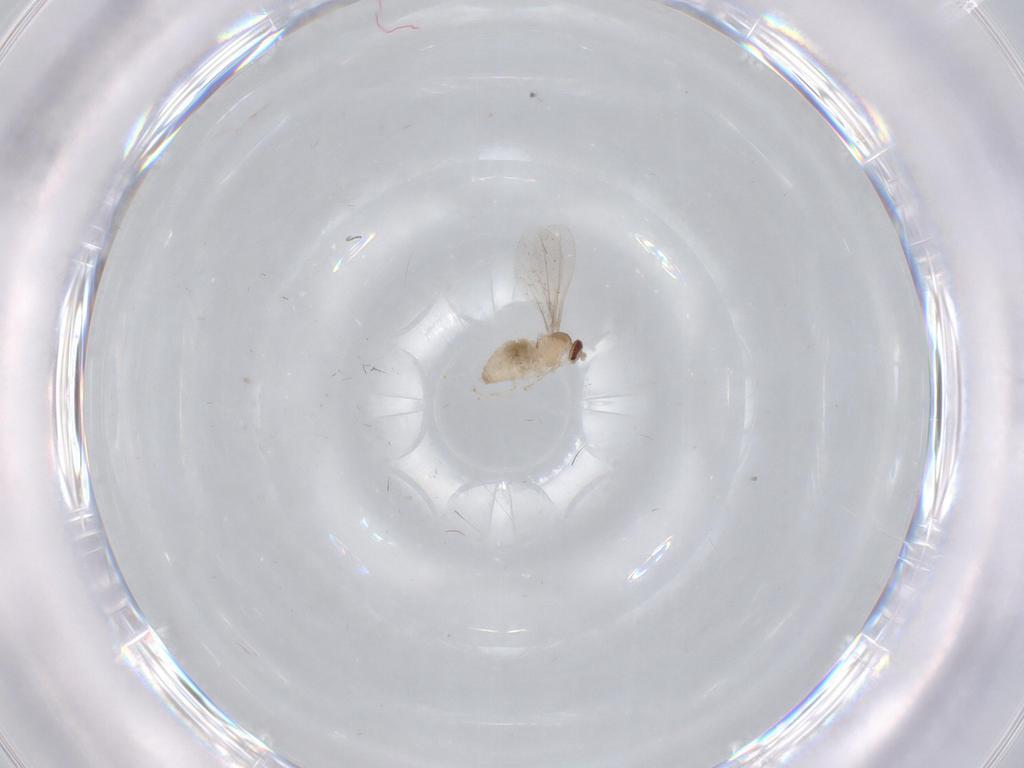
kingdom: Animalia
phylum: Arthropoda
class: Insecta
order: Diptera
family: Cecidomyiidae
